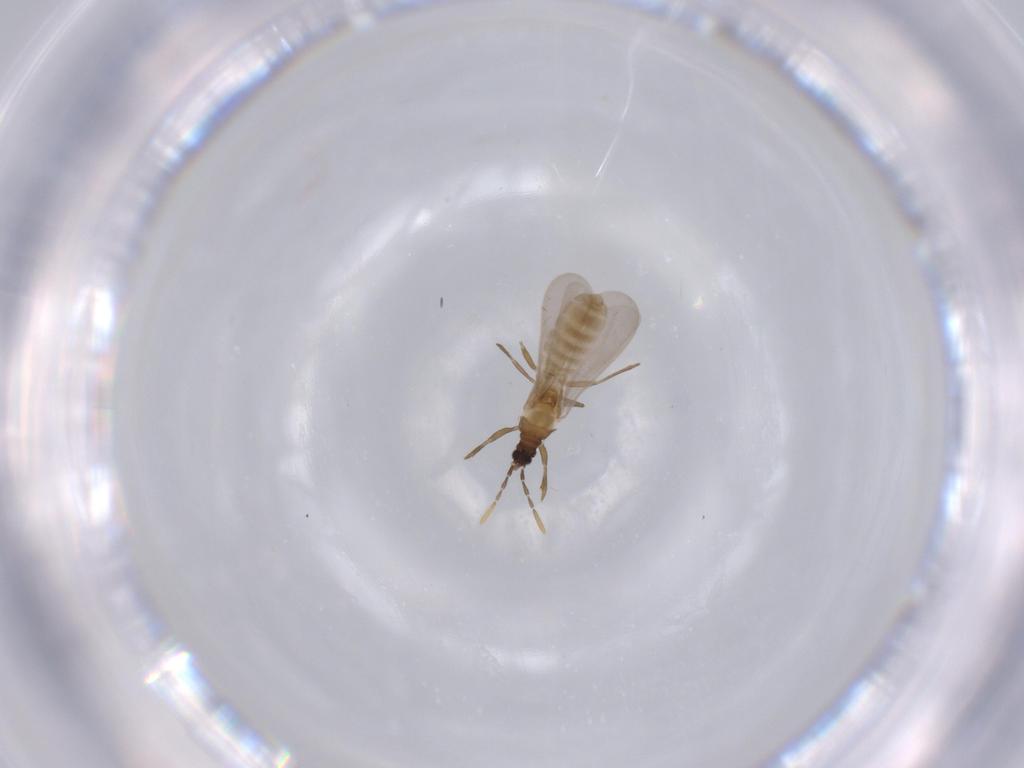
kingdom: Animalia
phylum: Arthropoda
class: Insecta
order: Hemiptera
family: Enicocephalidae
